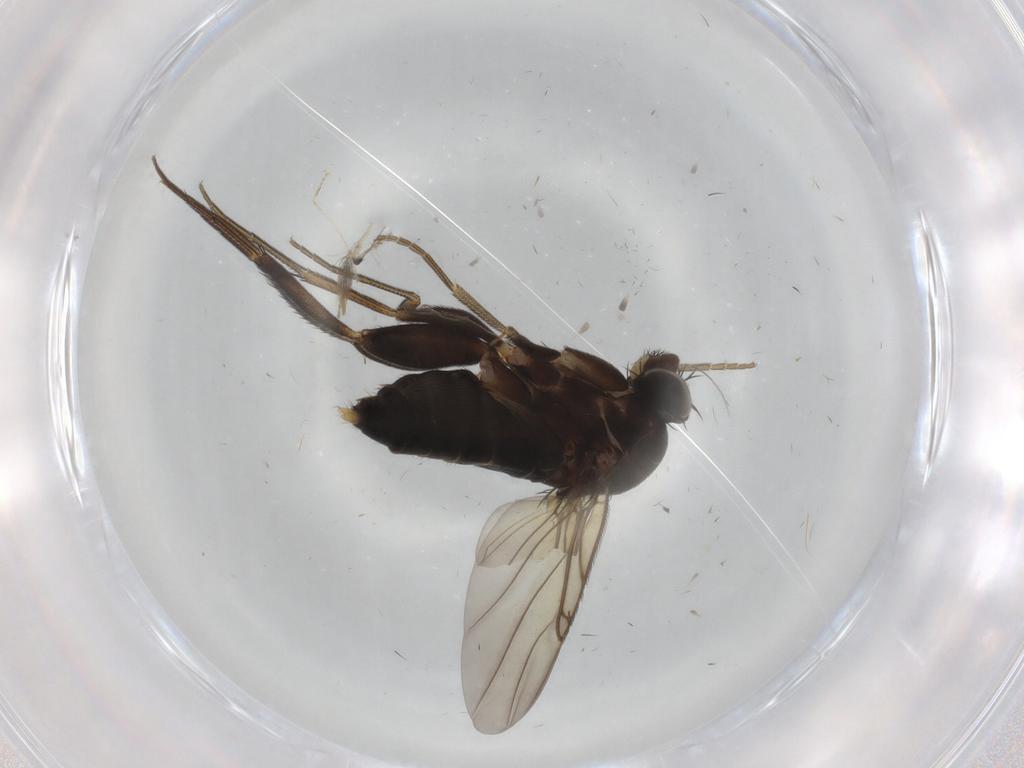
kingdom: Animalia
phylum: Arthropoda
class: Insecta
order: Diptera
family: Phoridae
